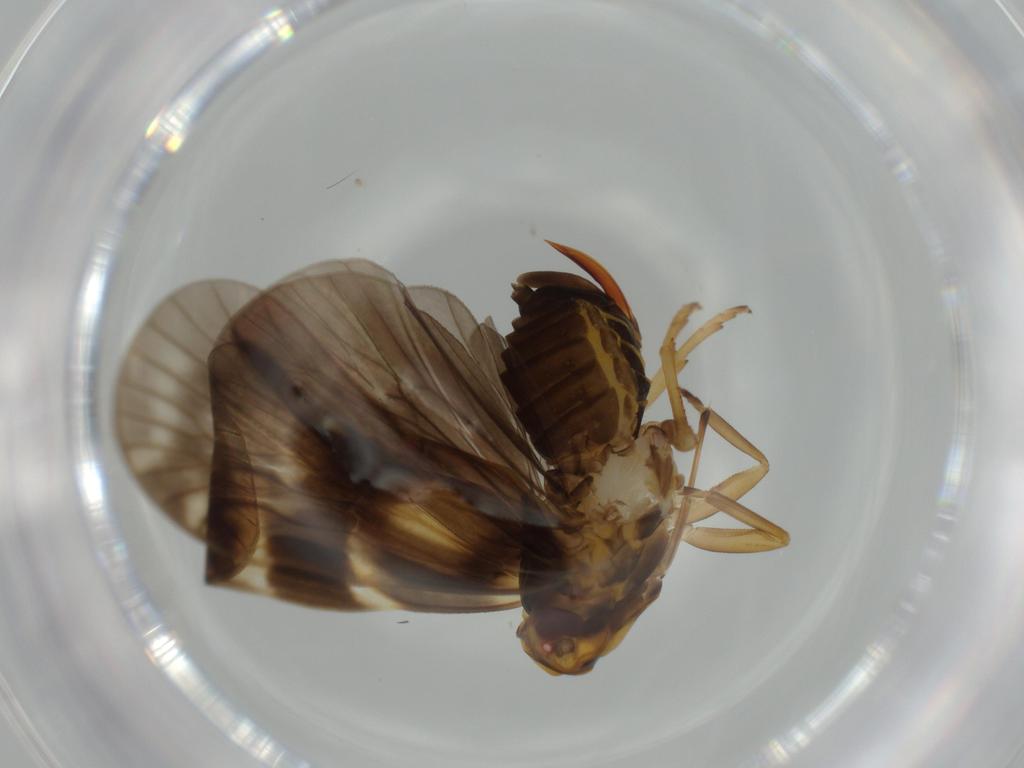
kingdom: Animalia
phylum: Arthropoda
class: Insecta
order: Hemiptera
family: Cixiidae
